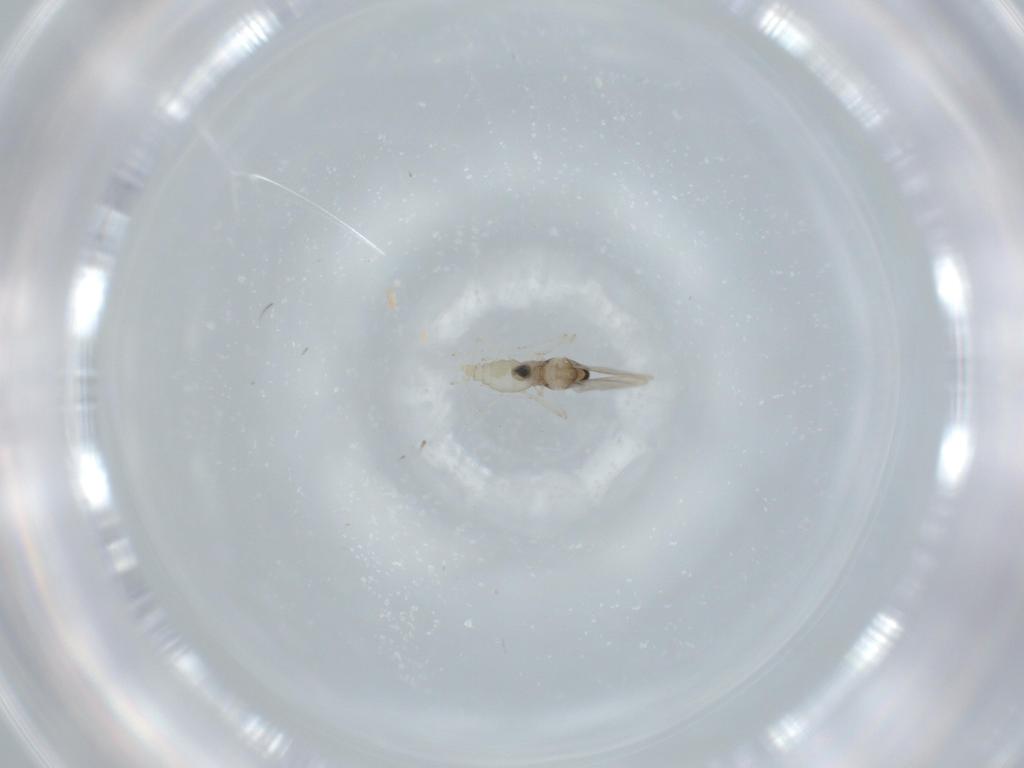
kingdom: Animalia
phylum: Arthropoda
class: Insecta
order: Diptera
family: Cecidomyiidae
